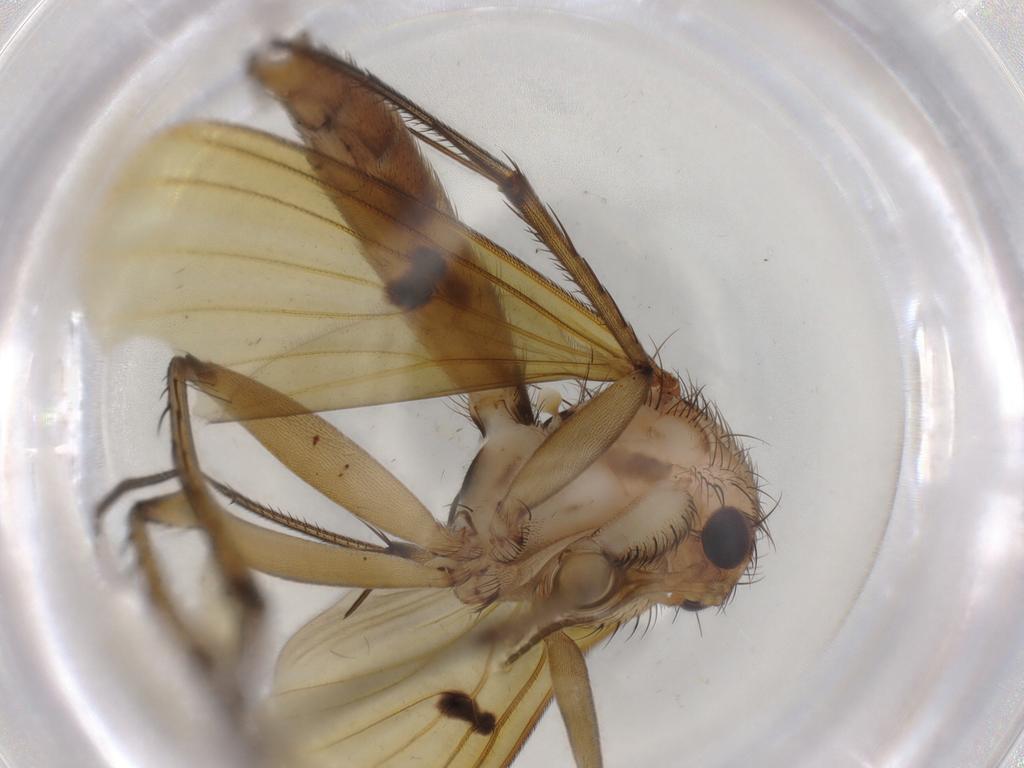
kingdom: Animalia
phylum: Arthropoda
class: Insecta
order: Diptera
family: Phoridae
